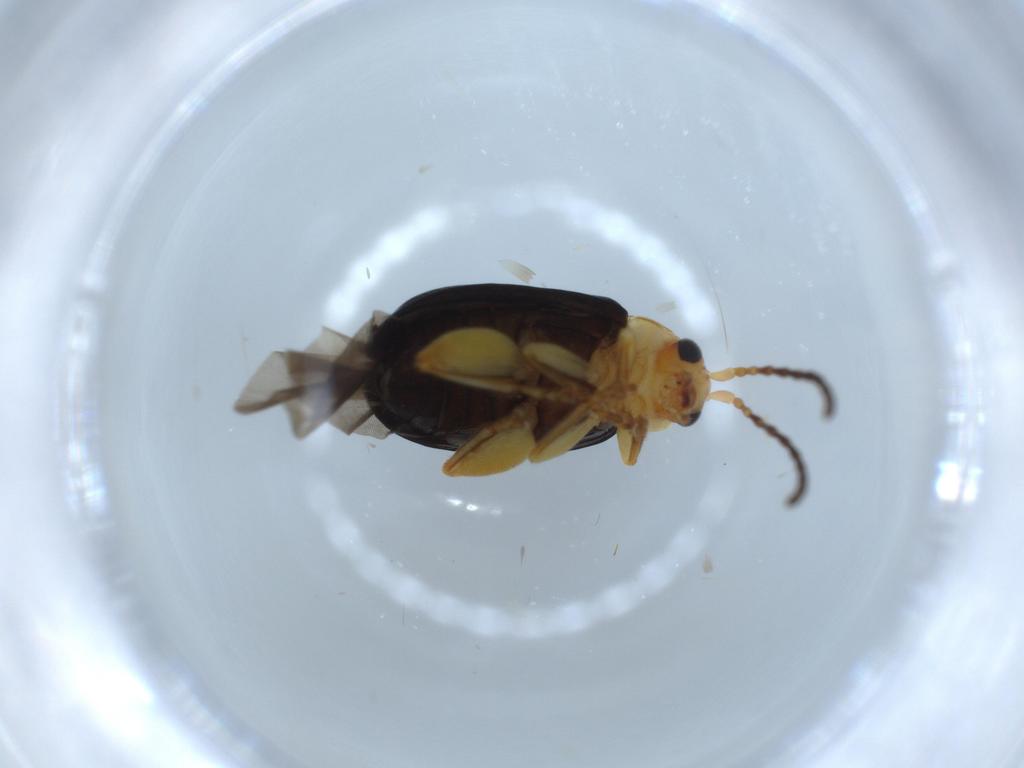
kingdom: Animalia
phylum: Arthropoda
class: Insecta
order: Coleoptera
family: Chrysomelidae
